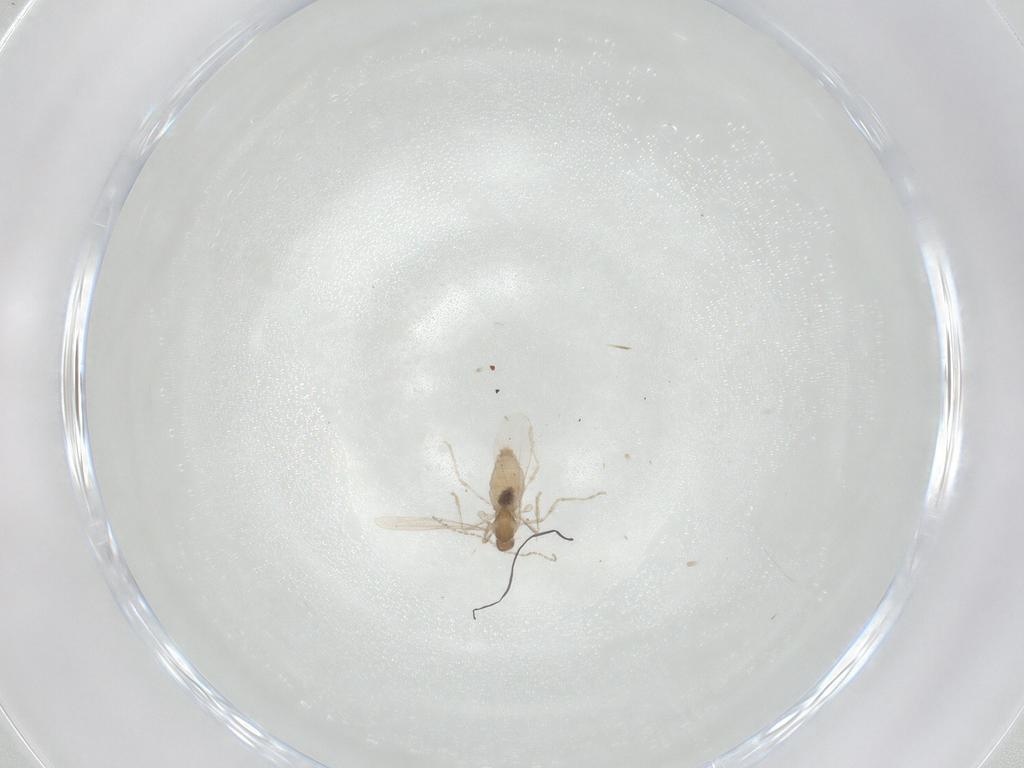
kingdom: Animalia
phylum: Arthropoda
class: Insecta
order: Diptera
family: Cecidomyiidae
